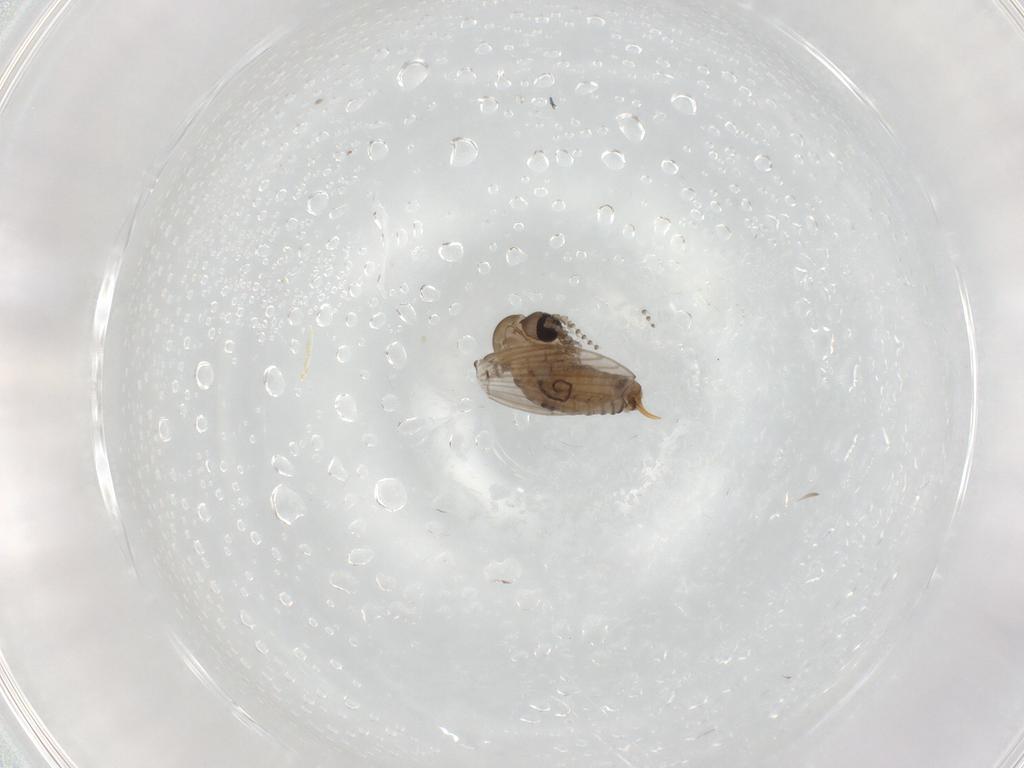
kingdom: Animalia
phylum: Arthropoda
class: Insecta
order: Diptera
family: Psychodidae
